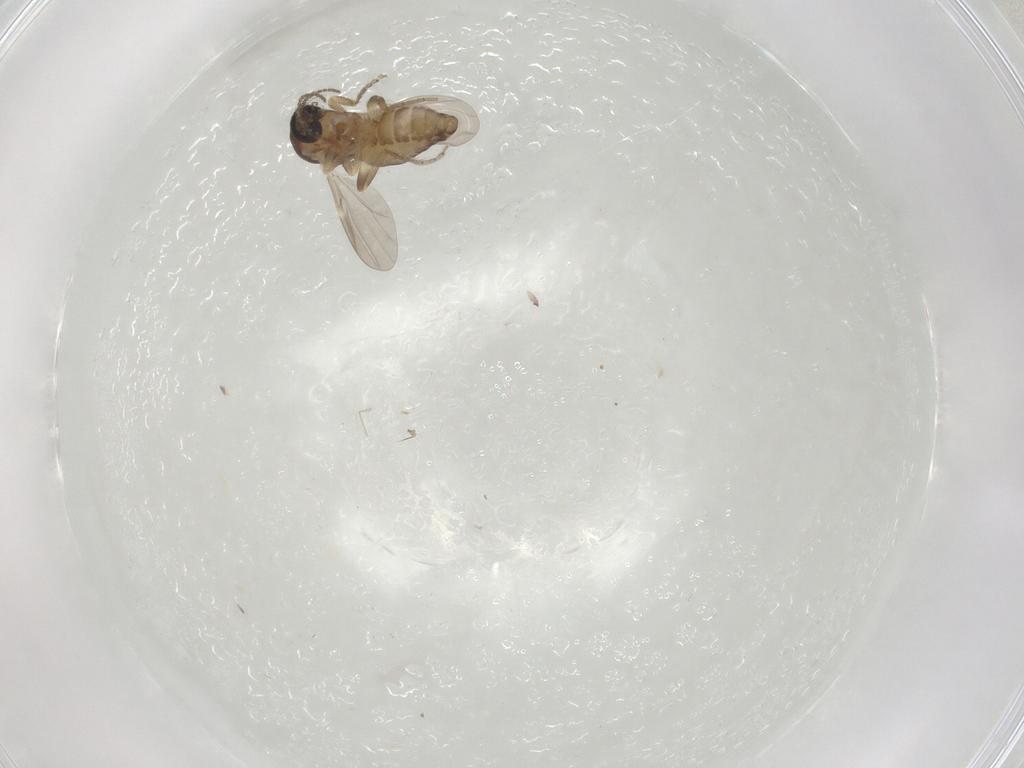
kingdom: Animalia
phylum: Arthropoda
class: Insecta
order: Diptera
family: Ceratopogonidae
